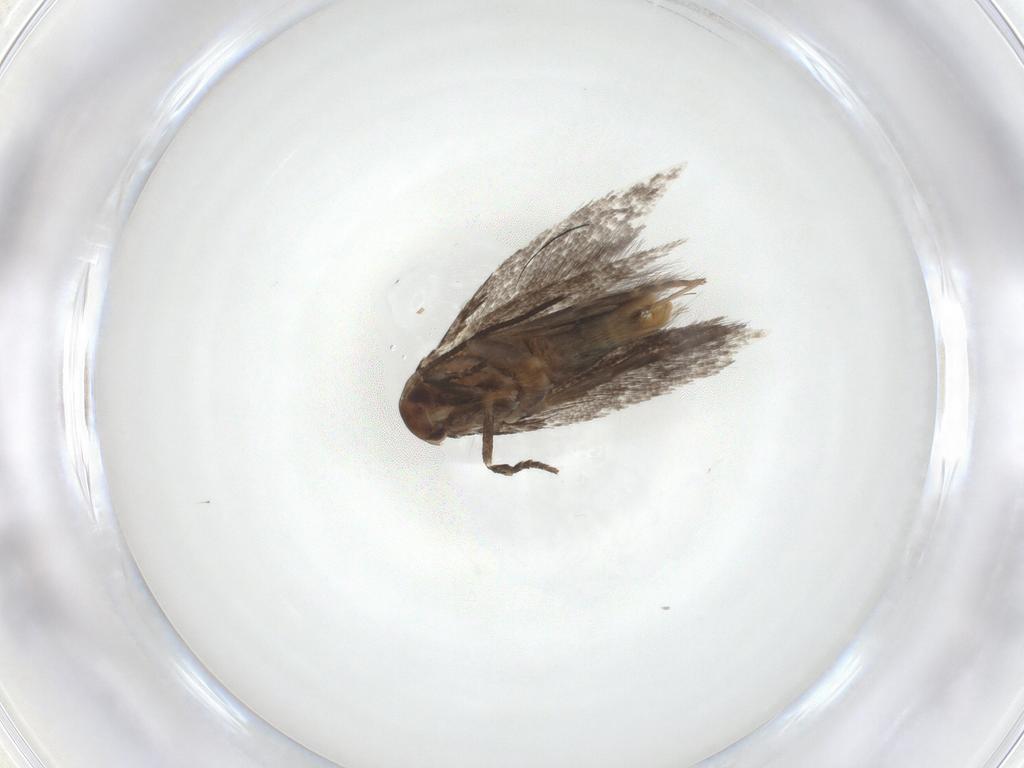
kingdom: Animalia
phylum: Arthropoda
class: Insecta
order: Lepidoptera
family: Elachistidae
